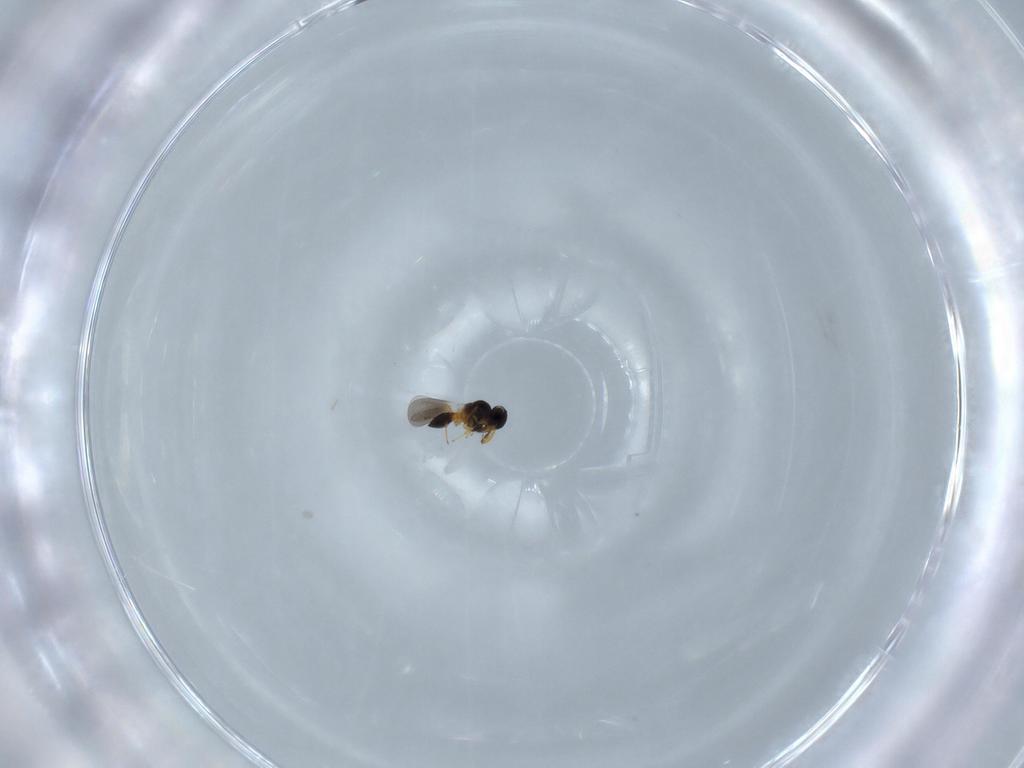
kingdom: Animalia
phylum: Arthropoda
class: Insecta
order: Hymenoptera
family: Platygastridae
